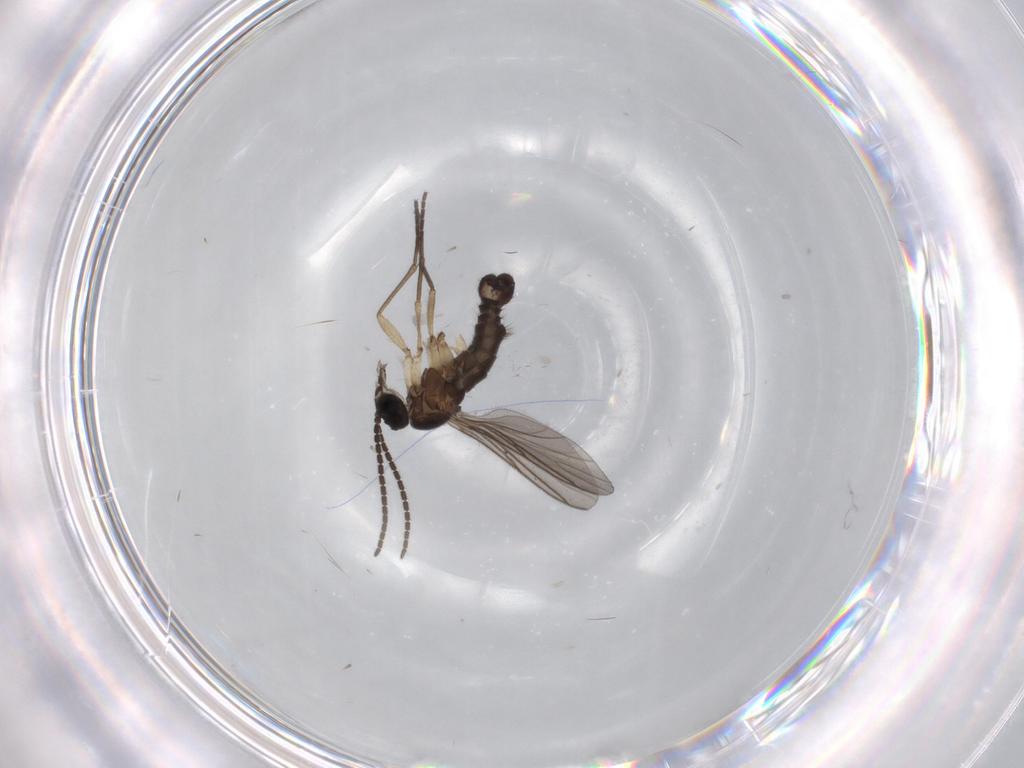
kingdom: Animalia
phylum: Arthropoda
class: Insecta
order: Diptera
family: Sciaridae
